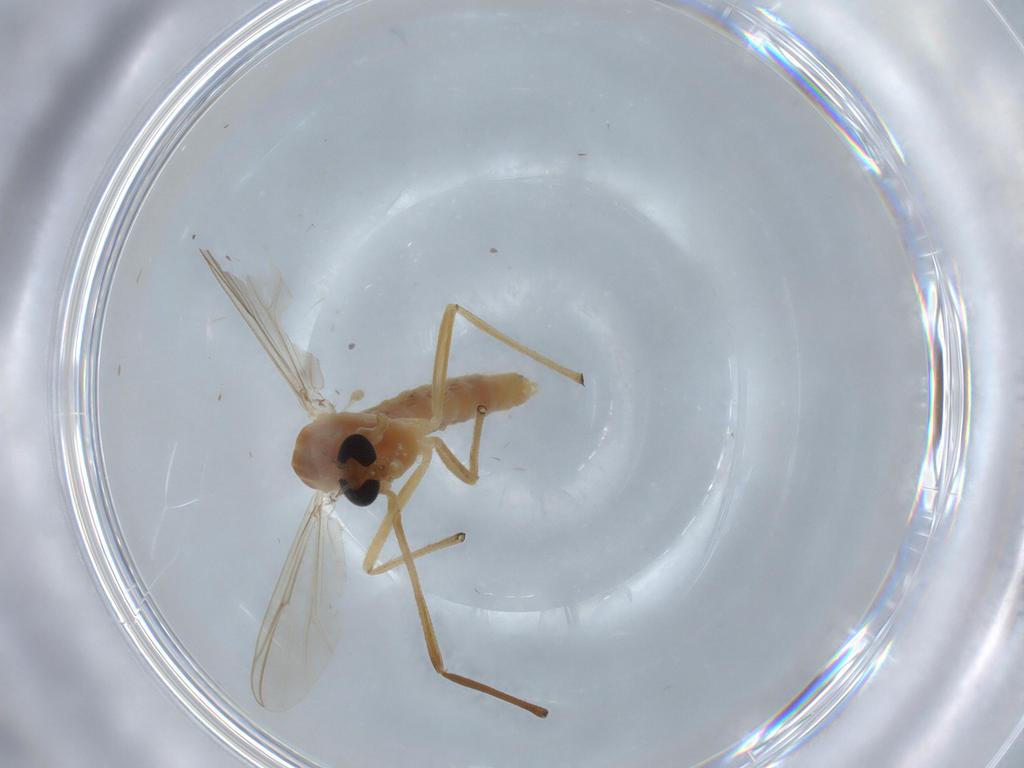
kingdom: Animalia
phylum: Arthropoda
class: Insecta
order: Diptera
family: Chironomidae
